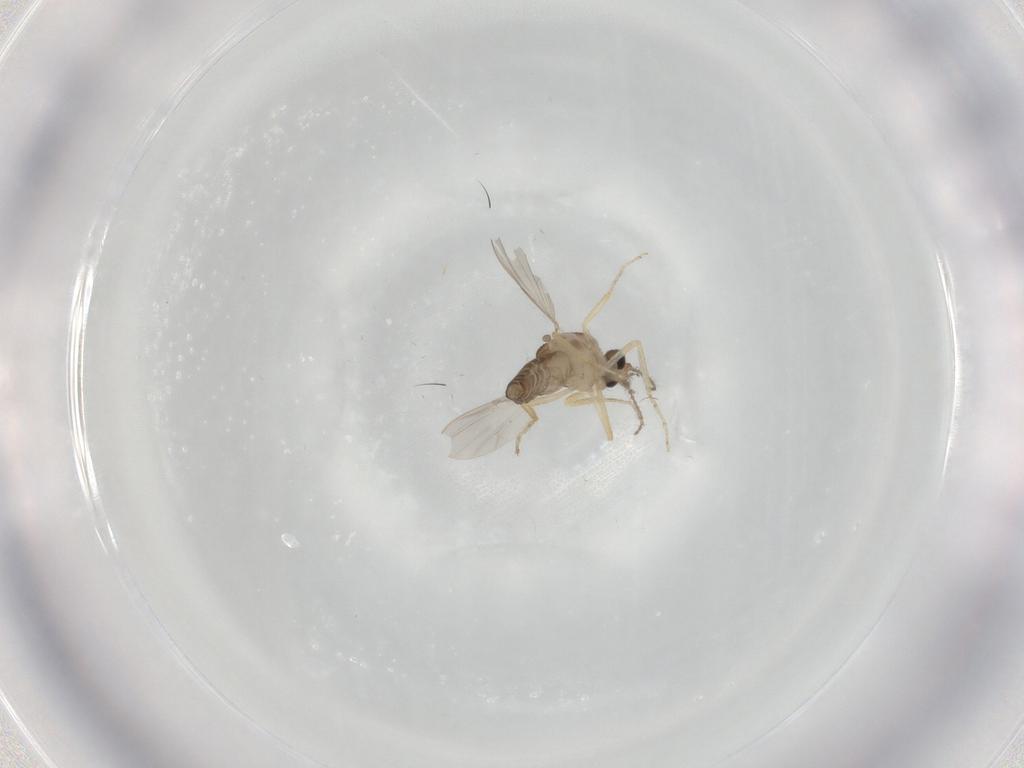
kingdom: Animalia
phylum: Arthropoda
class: Insecta
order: Diptera
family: Ceratopogonidae
